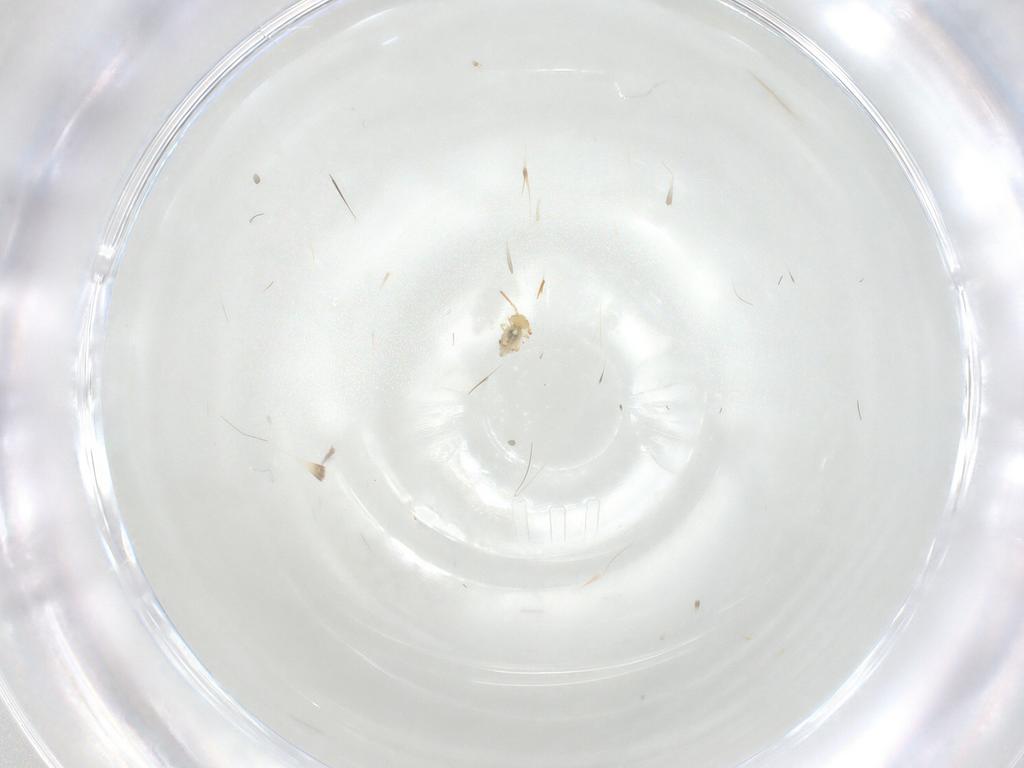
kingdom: Animalia
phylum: Arthropoda
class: Collembola
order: Symphypleona
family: Bourletiellidae
